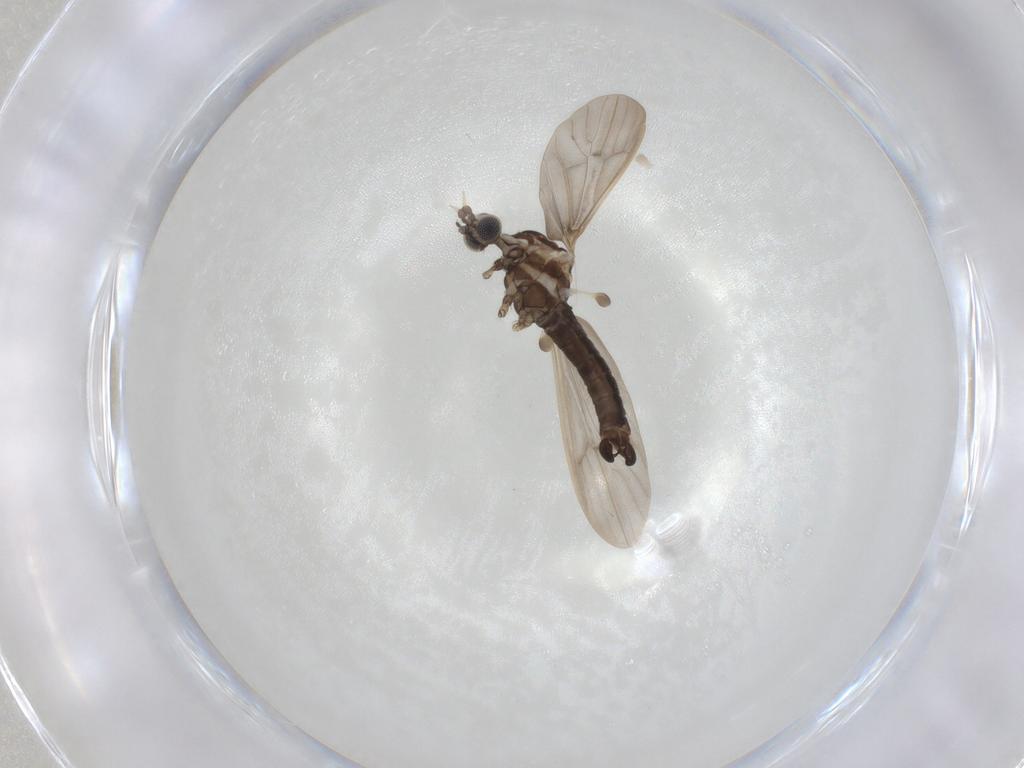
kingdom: Animalia
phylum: Arthropoda
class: Insecta
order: Diptera
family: Limoniidae
